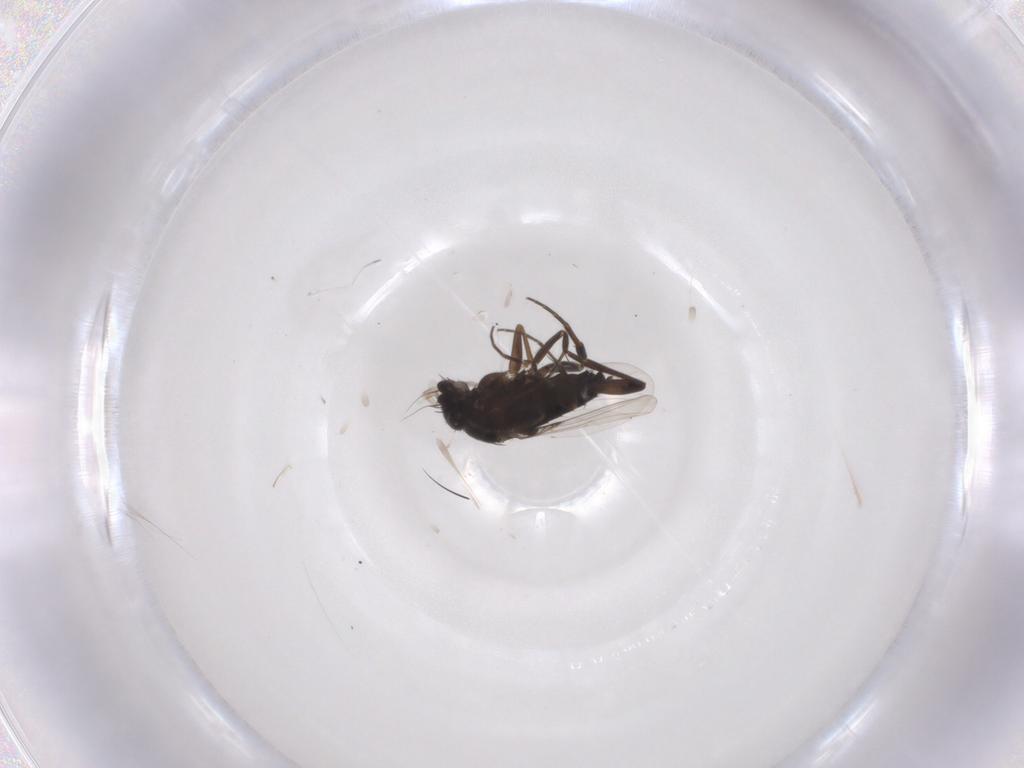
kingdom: Animalia
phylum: Arthropoda
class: Insecta
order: Diptera
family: Phoridae
